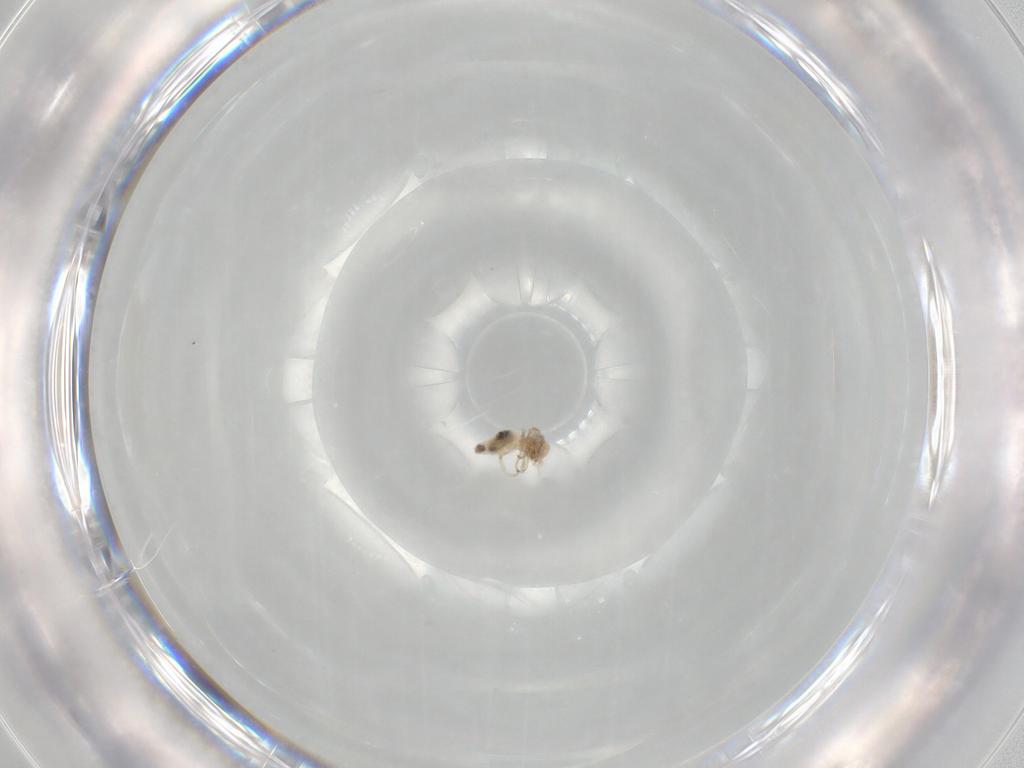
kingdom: Animalia
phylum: Arthropoda
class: Insecta
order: Psocodea
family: Stenopsocidae
